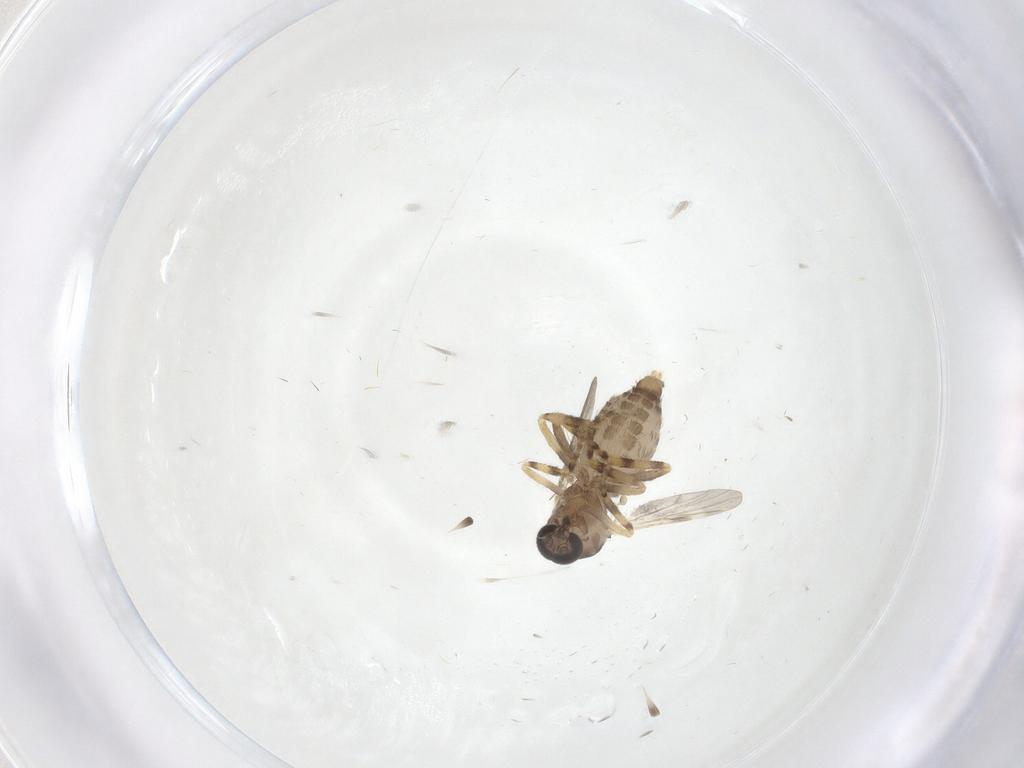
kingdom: Animalia
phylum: Arthropoda
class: Insecta
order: Diptera
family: Ceratopogonidae
